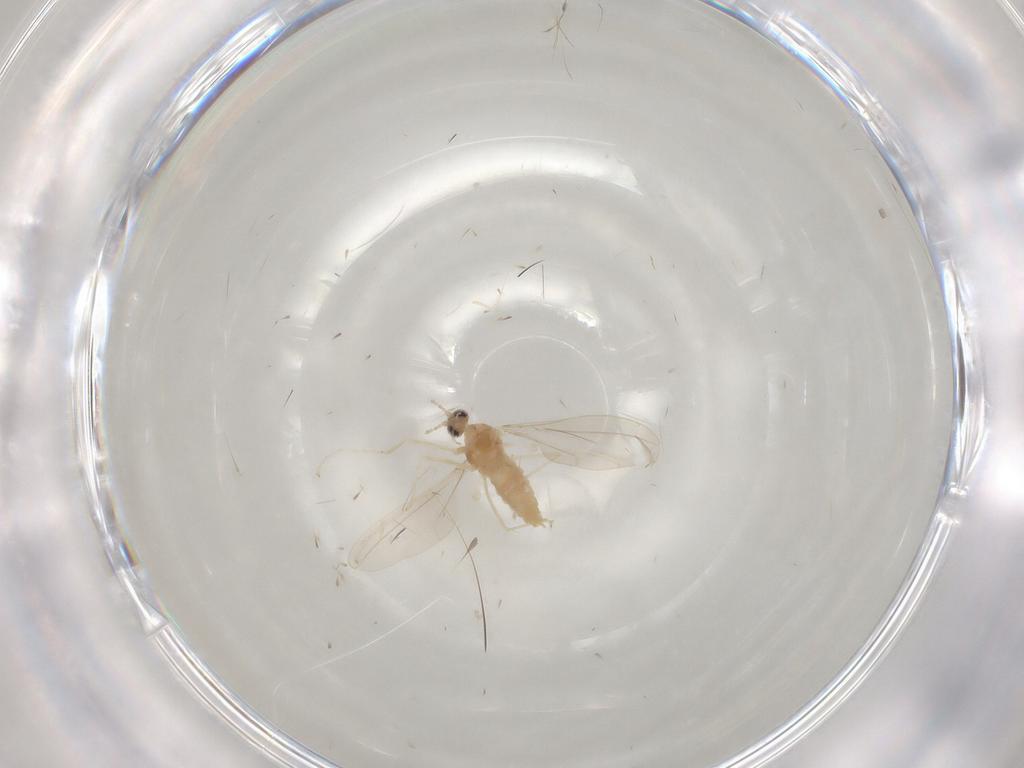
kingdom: Animalia
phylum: Arthropoda
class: Insecta
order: Diptera
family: Cecidomyiidae
